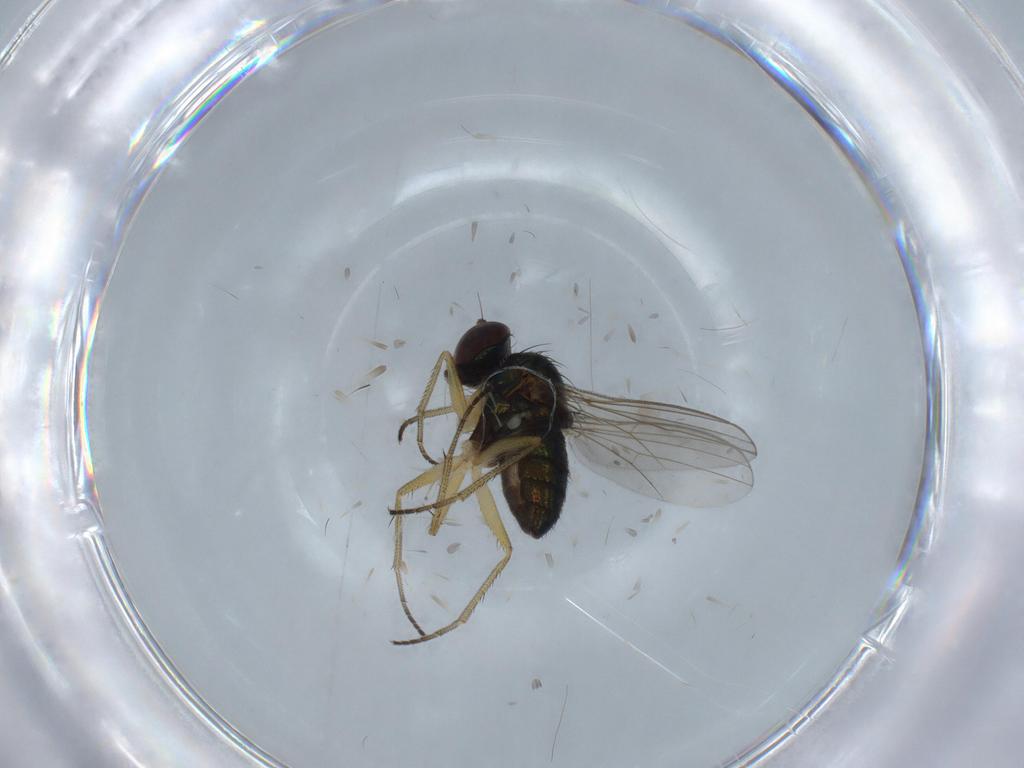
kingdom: Animalia
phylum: Arthropoda
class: Insecta
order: Diptera
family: Dolichopodidae
